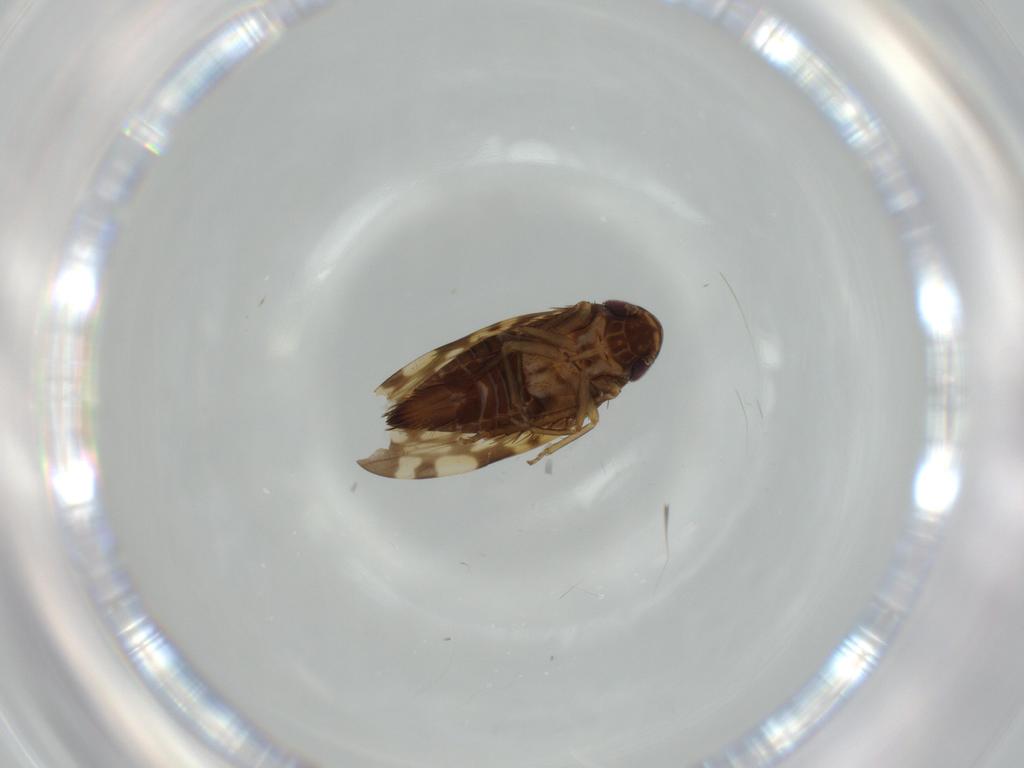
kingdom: Animalia
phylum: Arthropoda
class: Insecta
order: Hemiptera
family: Cicadellidae
